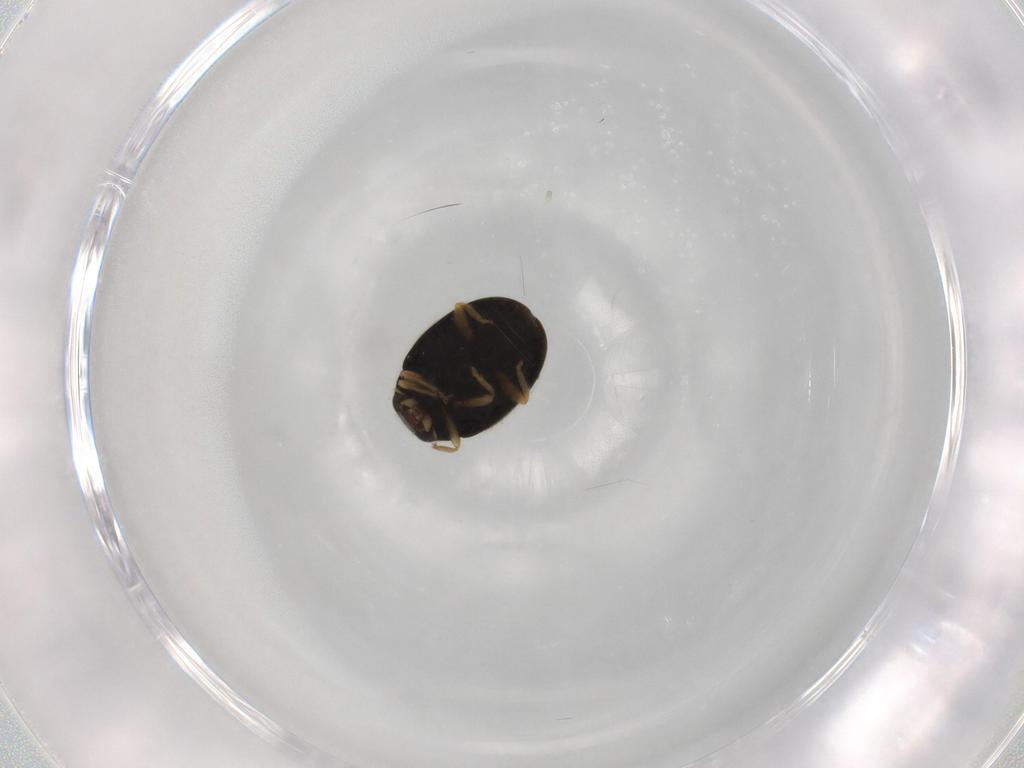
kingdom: Animalia
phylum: Arthropoda
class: Insecta
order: Coleoptera
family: Coccinellidae
